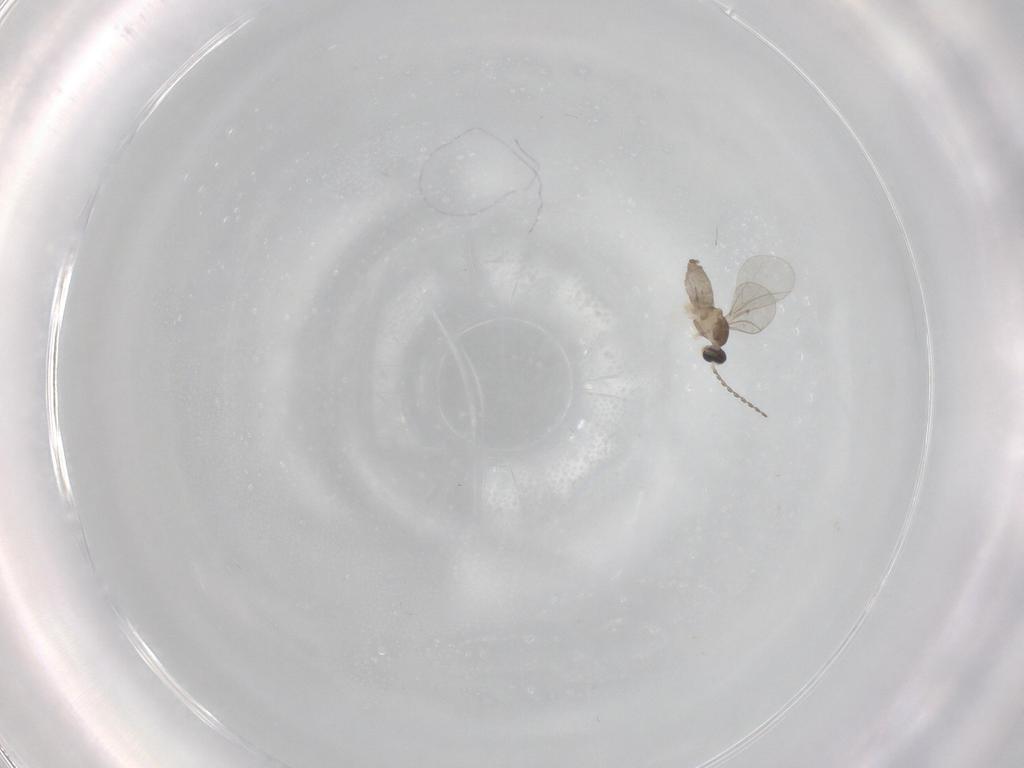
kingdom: Animalia
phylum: Arthropoda
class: Insecta
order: Diptera
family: Cecidomyiidae
